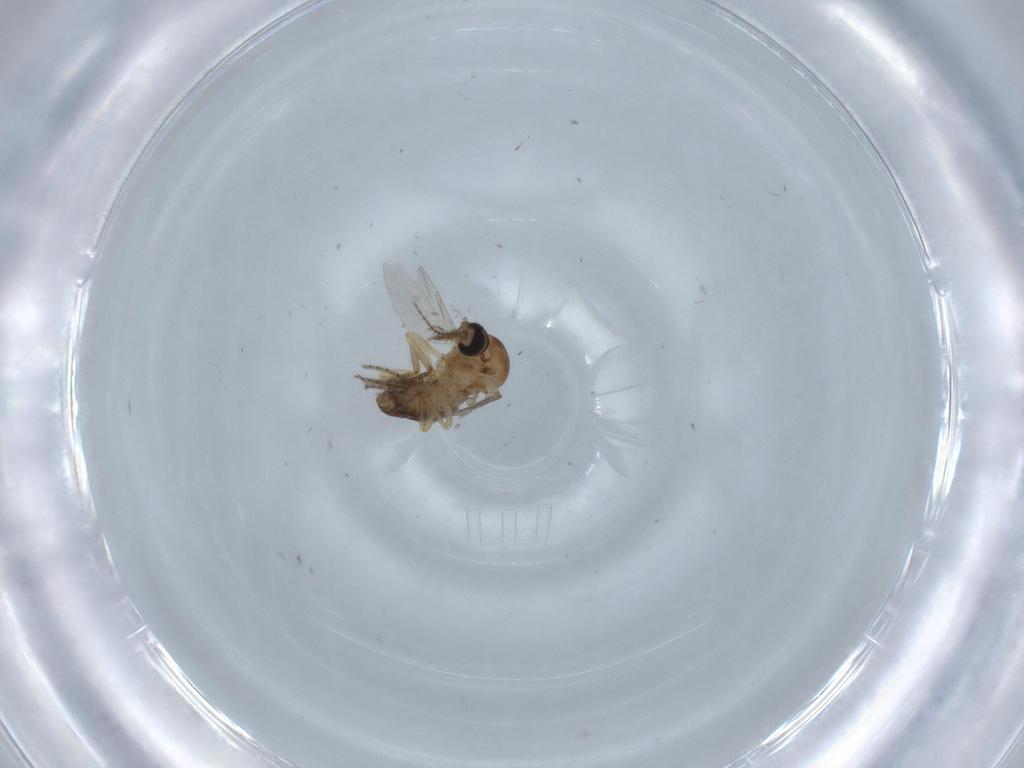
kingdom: Animalia
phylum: Arthropoda
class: Insecta
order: Diptera
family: Ceratopogonidae
